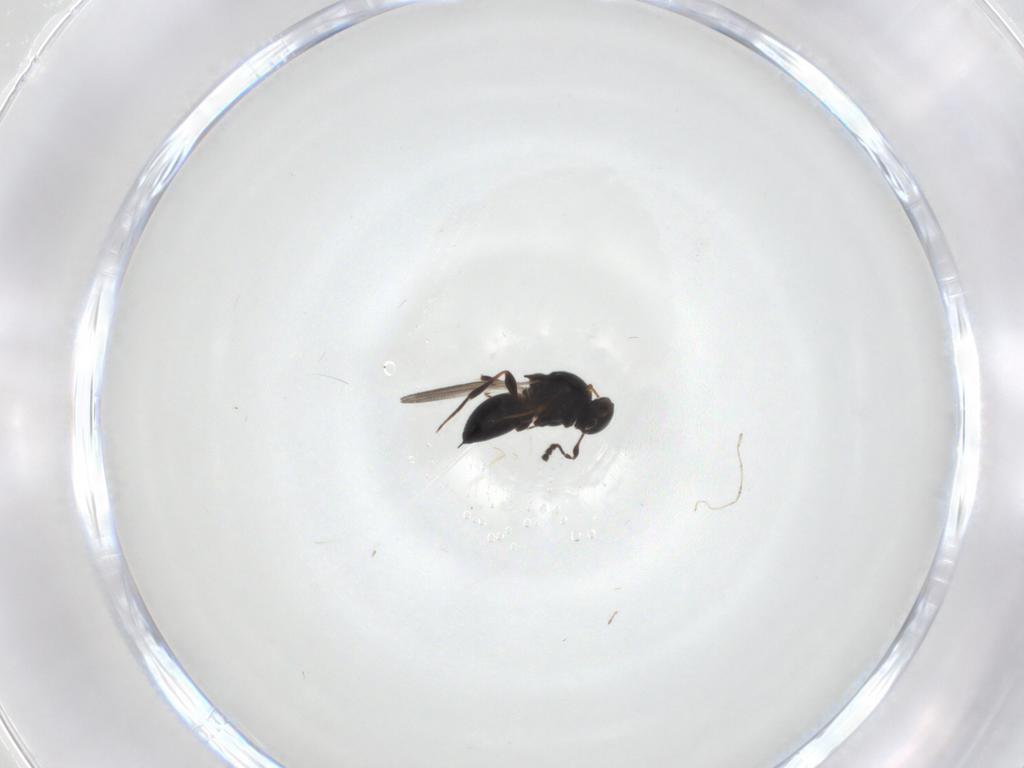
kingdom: Animalia
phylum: Arthropoda
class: Insecta
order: Hymenoptera
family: Platygastridae
